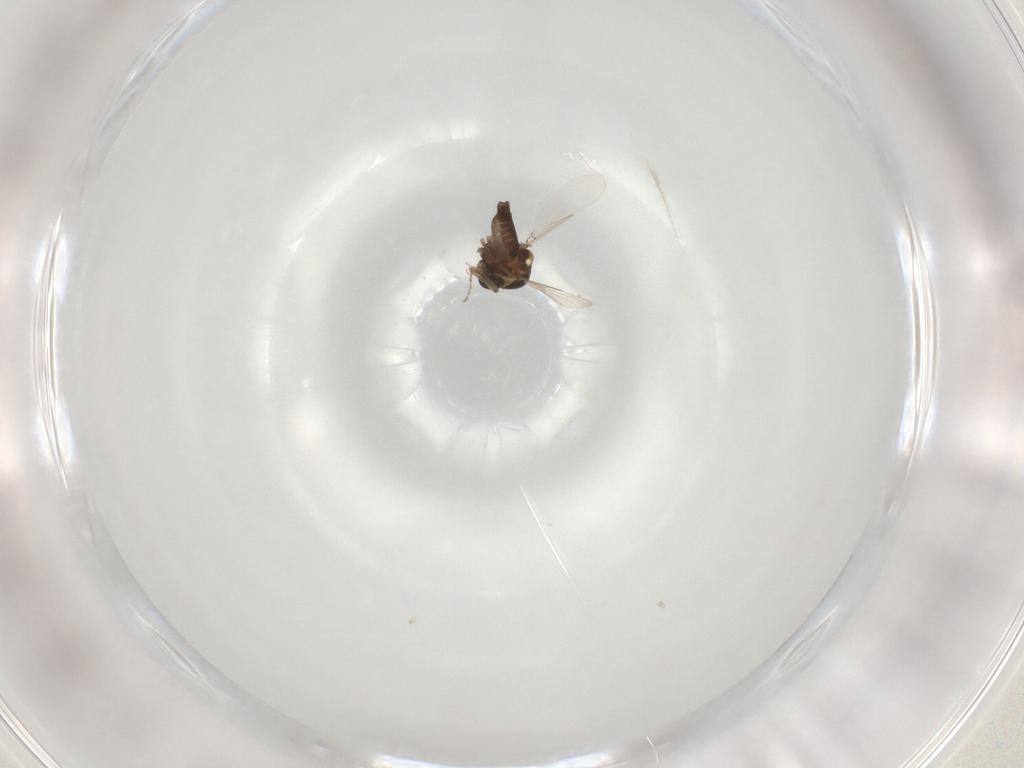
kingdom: Animalia
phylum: Arthropoda
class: Insecta
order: Diptera
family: Ceratopogonidae
